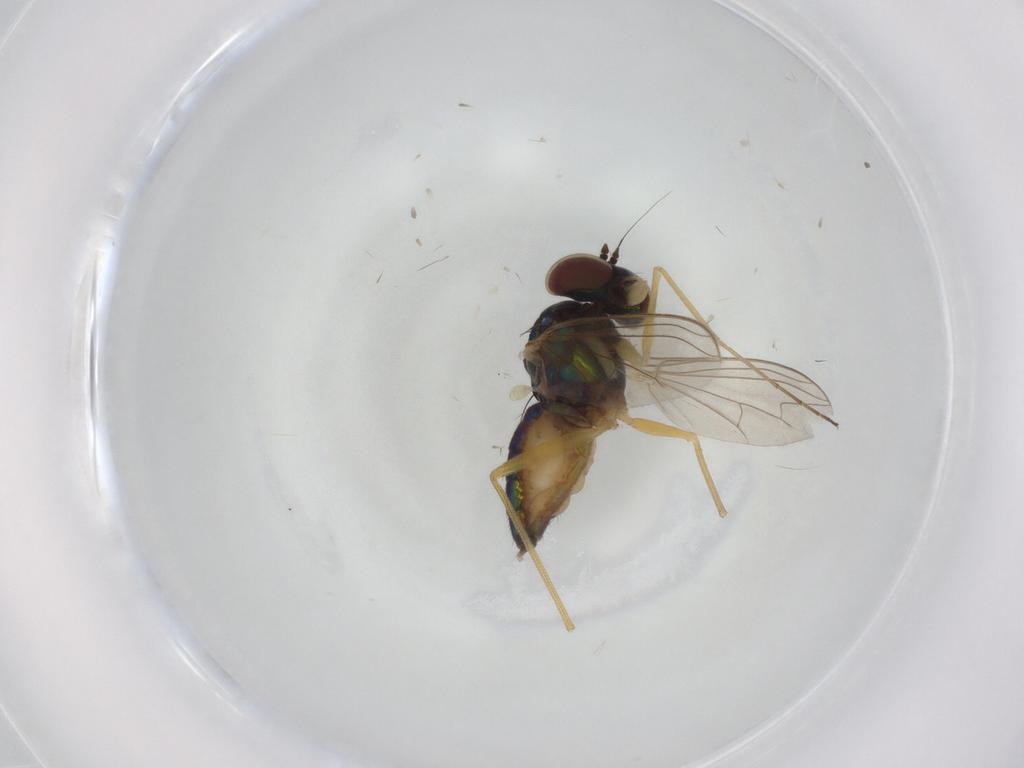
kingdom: Animalia
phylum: Arthropoda
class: Insecta
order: Diptera
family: Dolichopodidae
